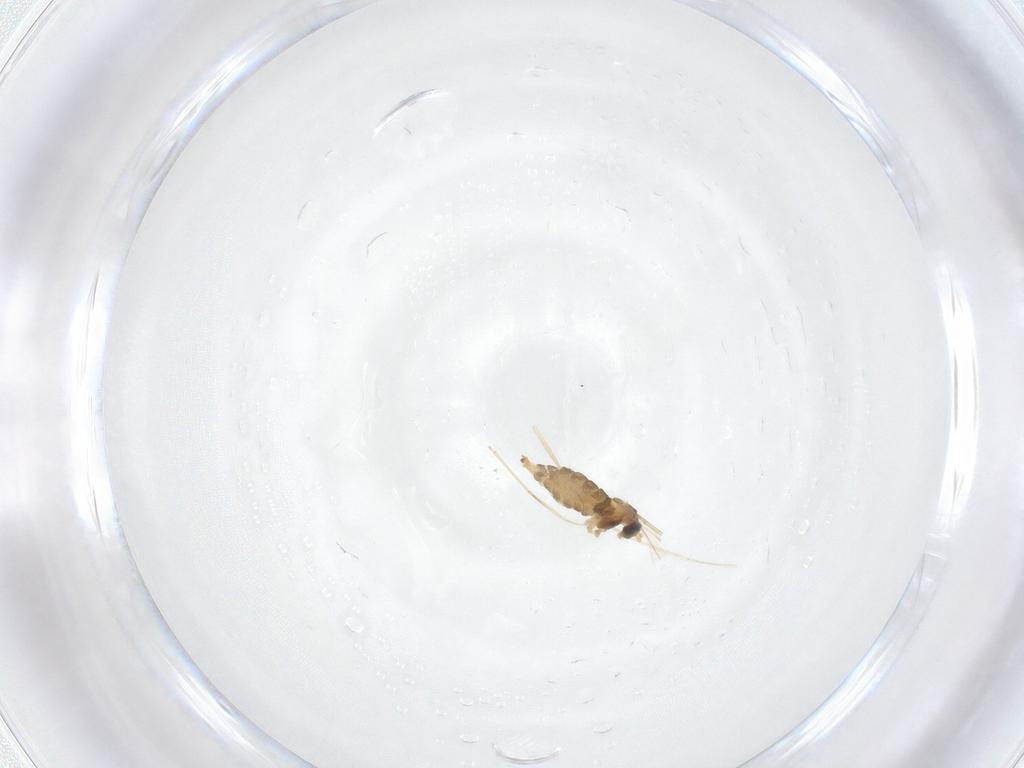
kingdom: Animalia
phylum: Arthropoda
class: Insecta
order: Diptera
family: Cecidomyiidae
